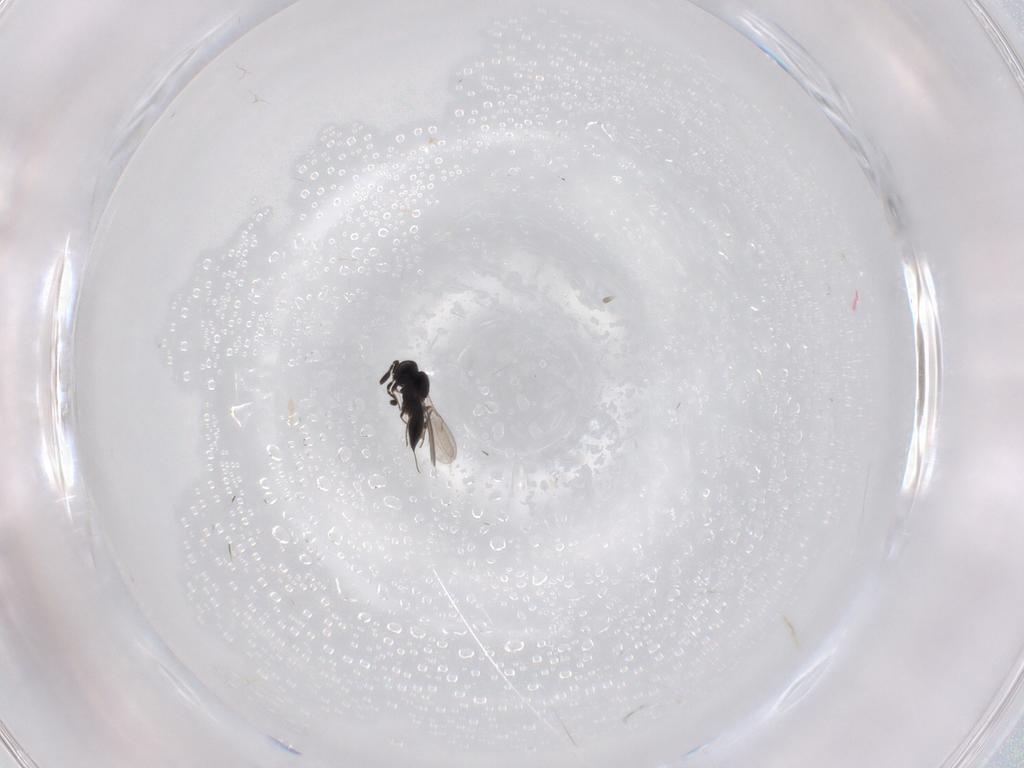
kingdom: Animalia
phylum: Arthropoda
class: Insecta
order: Hymenoptera
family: Scelionidae
